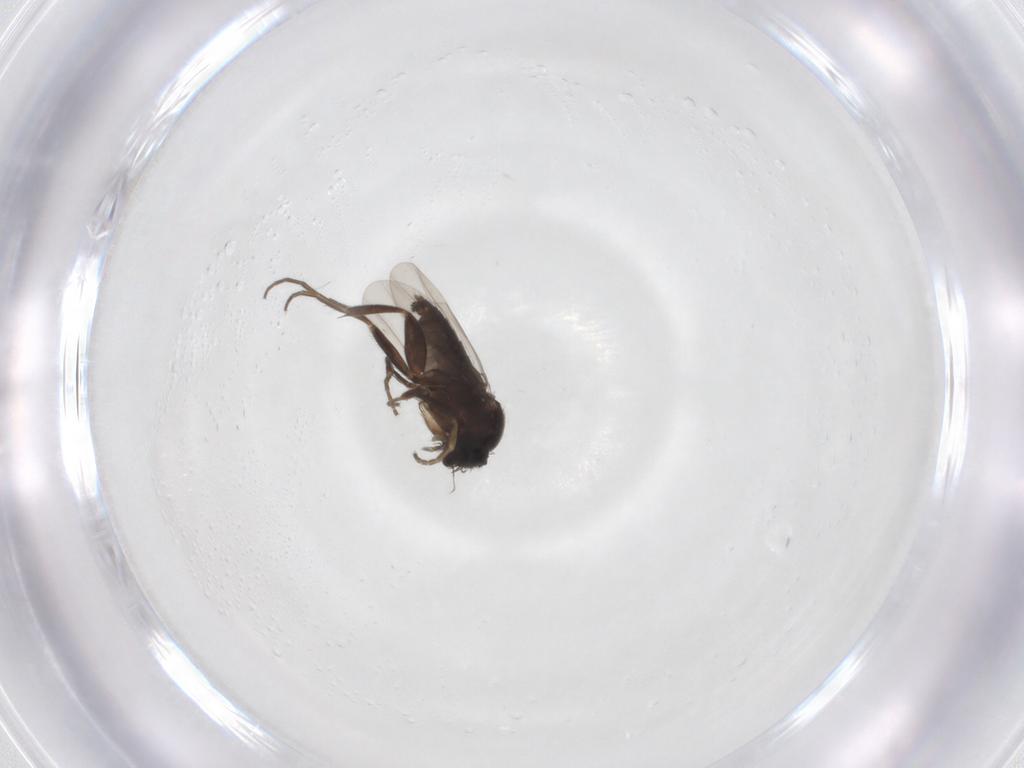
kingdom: Animalia
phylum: Arthropoda
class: Insecta
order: Diptera
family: Phoridae
